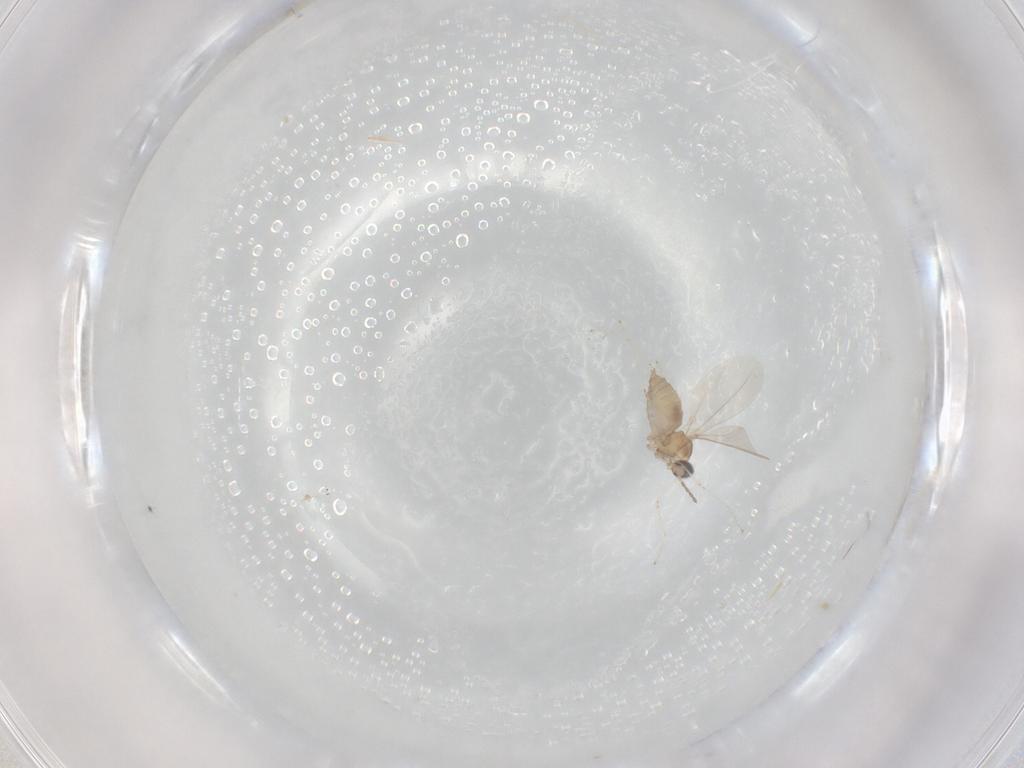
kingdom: Animalia
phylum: Arthropoda
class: Insecta
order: Diptera
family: Cecidomyiidae
